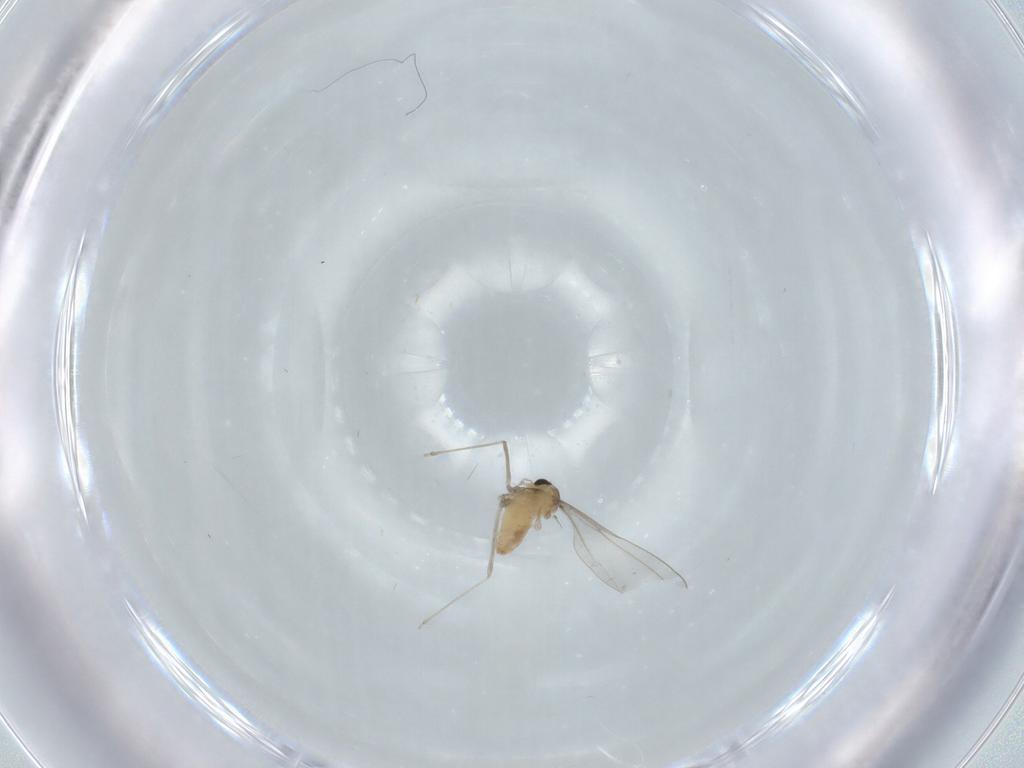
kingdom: Animalia
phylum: Arthropoda
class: Insecta
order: Diptera
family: Cecidomyiidae
